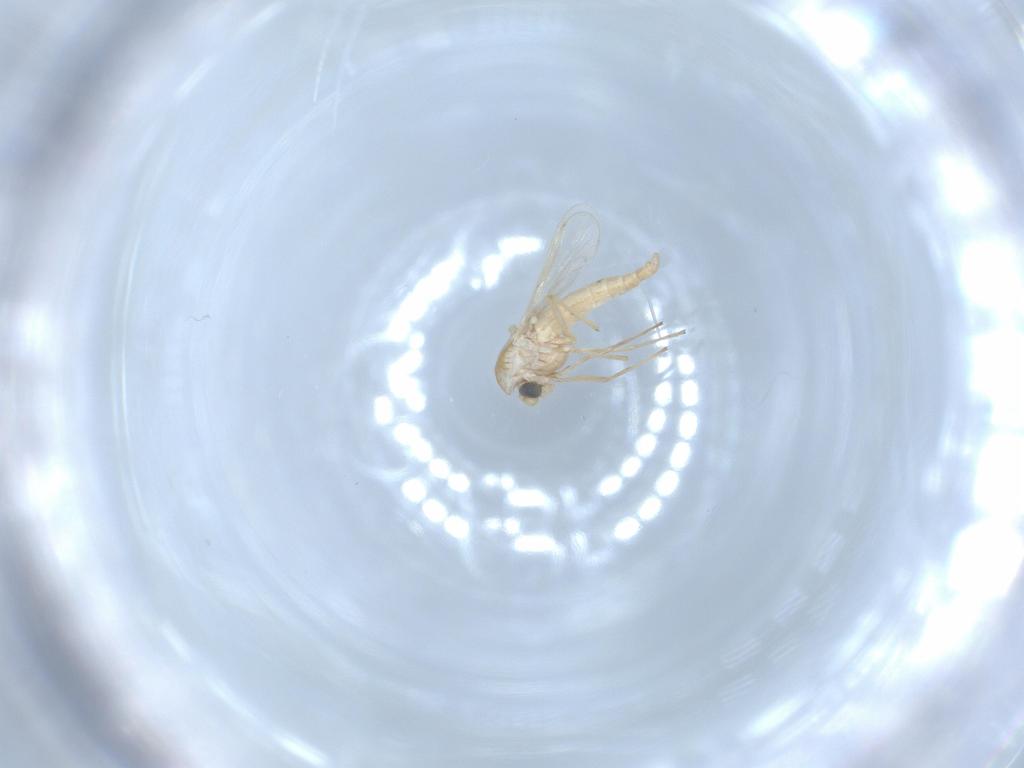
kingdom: Animalia
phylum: Arthropoda
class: Insecta
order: Diptera
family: Chironomidae
